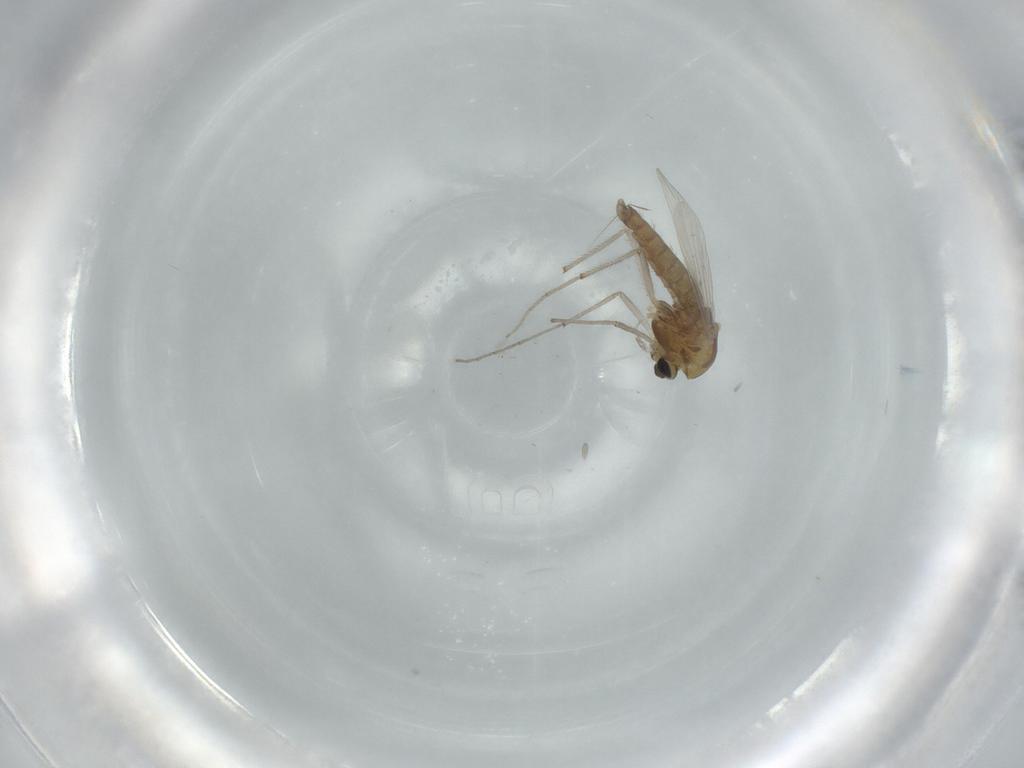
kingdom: Animalia
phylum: Arthropoda
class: Insecta
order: Diptera
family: Chironomidae
